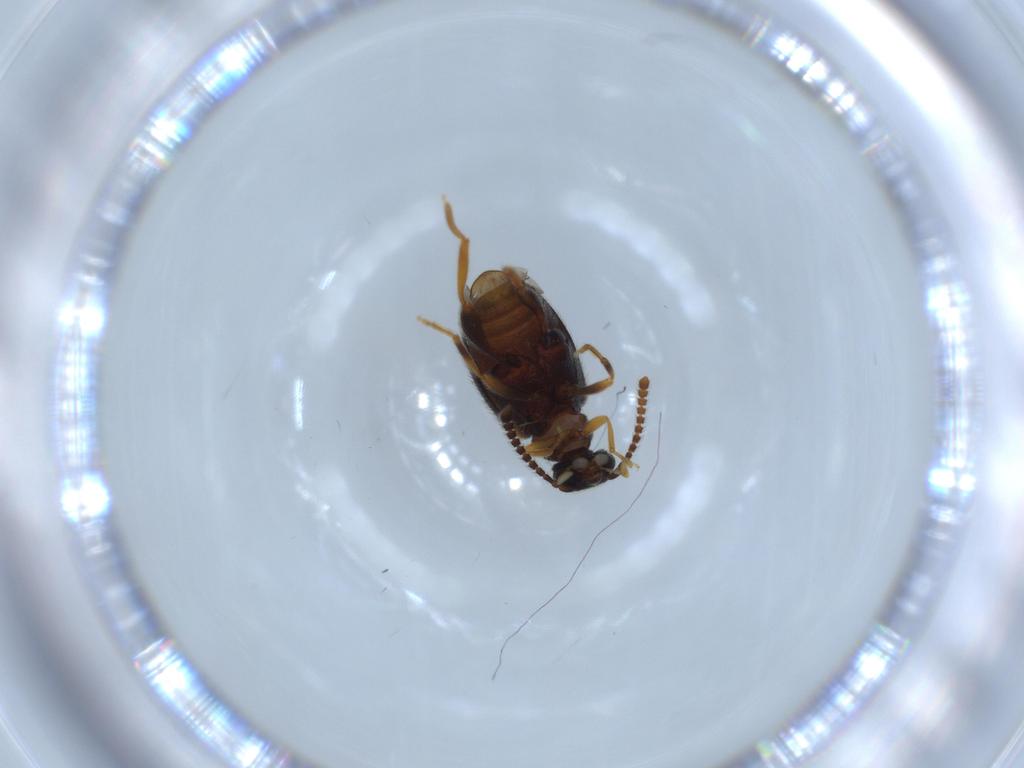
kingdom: Animalia
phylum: Arthropoda
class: Insecta
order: Coleoptera
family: Aderidae
